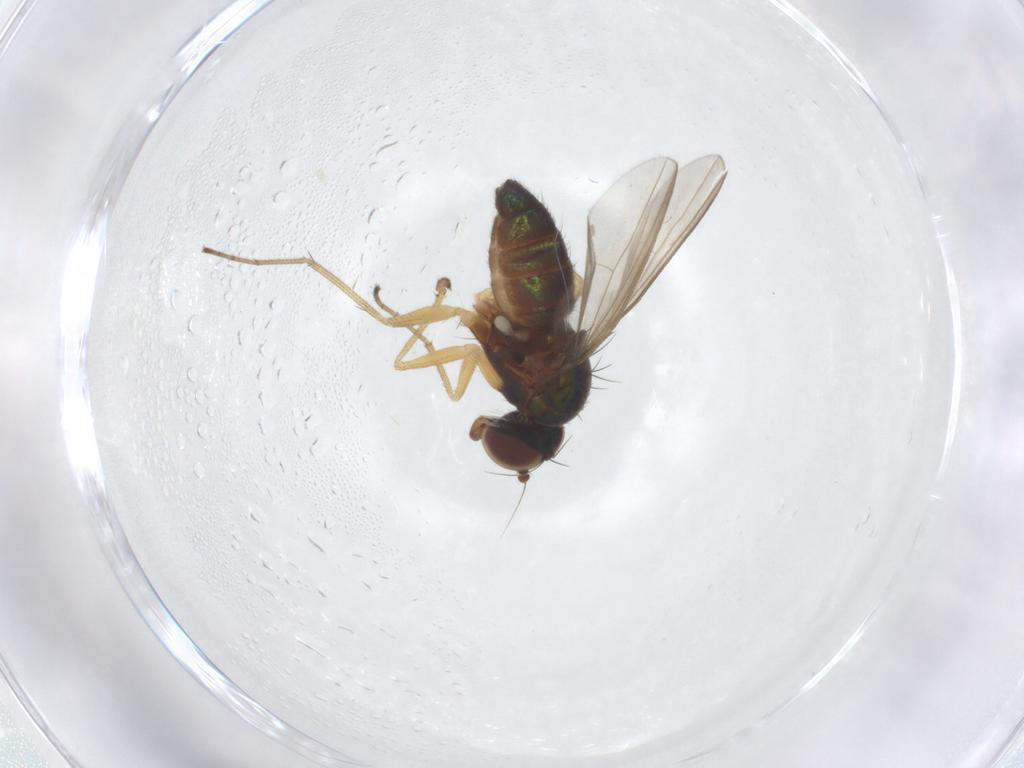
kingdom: Animalia
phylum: Arthropoda
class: Insecta
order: Diptera
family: Dolichopodidae
